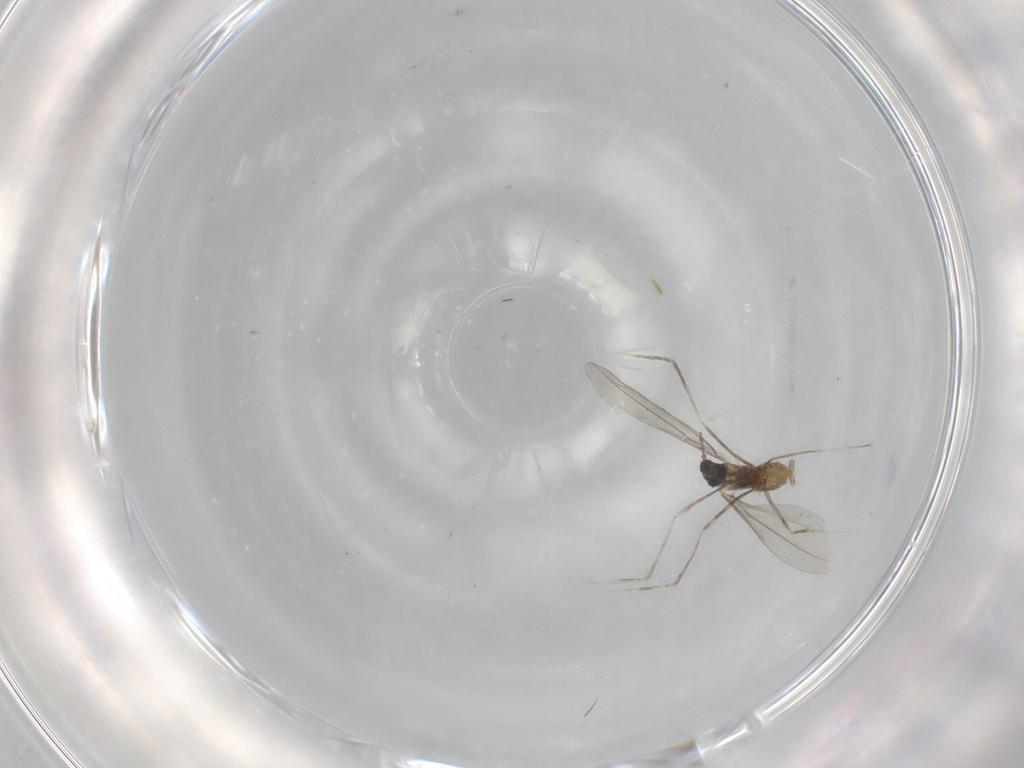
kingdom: Animalia
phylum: Arthropoda
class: Insecta
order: Diptera
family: Cecidomyiidae
